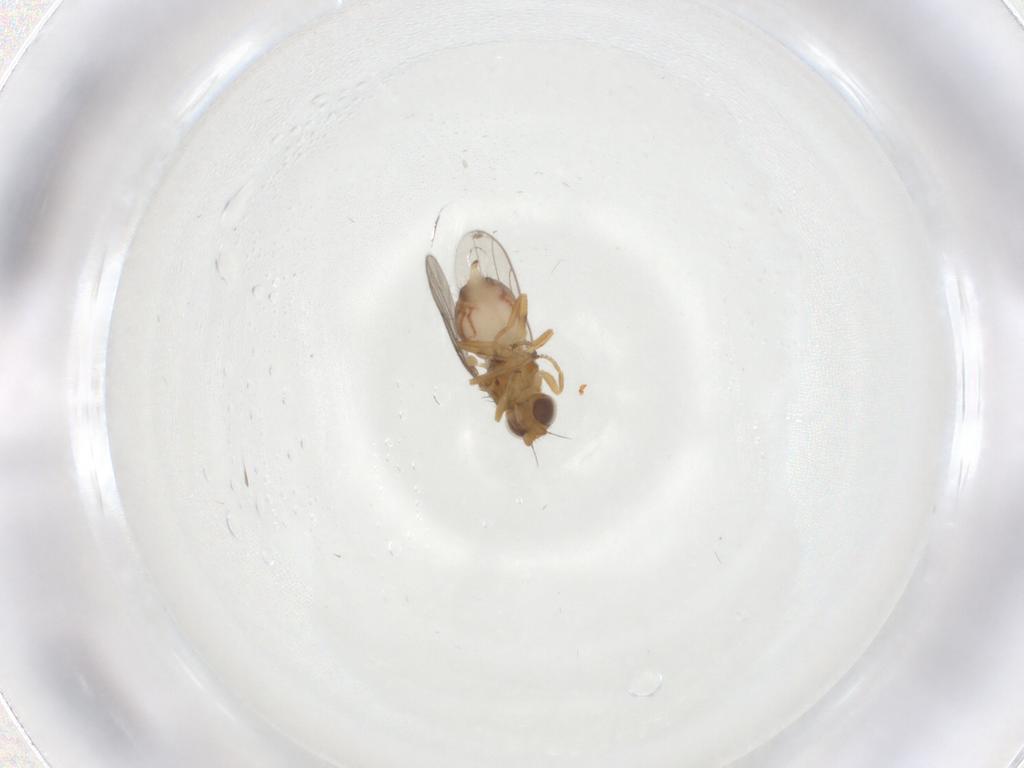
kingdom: Animalia
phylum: Arthropoda
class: Insecta
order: Diptera
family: Chloropidae
